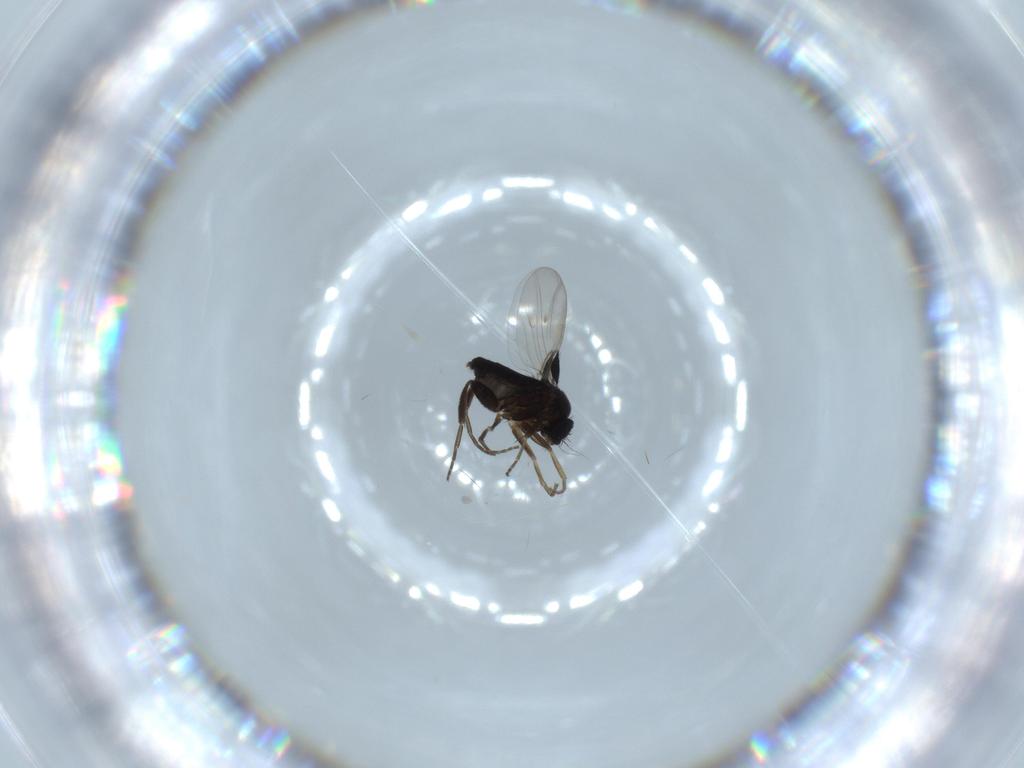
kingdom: Animalia
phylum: Arthropoda
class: Insecta
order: Diptera
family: Phoridae
